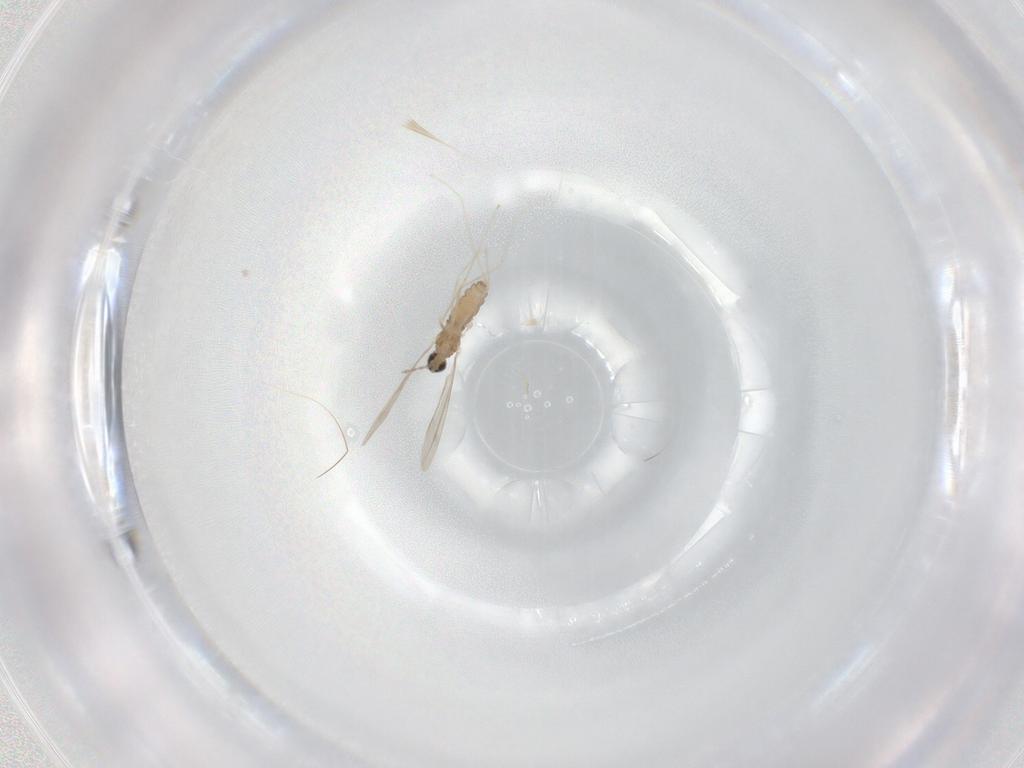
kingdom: Animalia
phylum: Arthropoda
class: Insecta
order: Diptera
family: Cecidomyiidae
